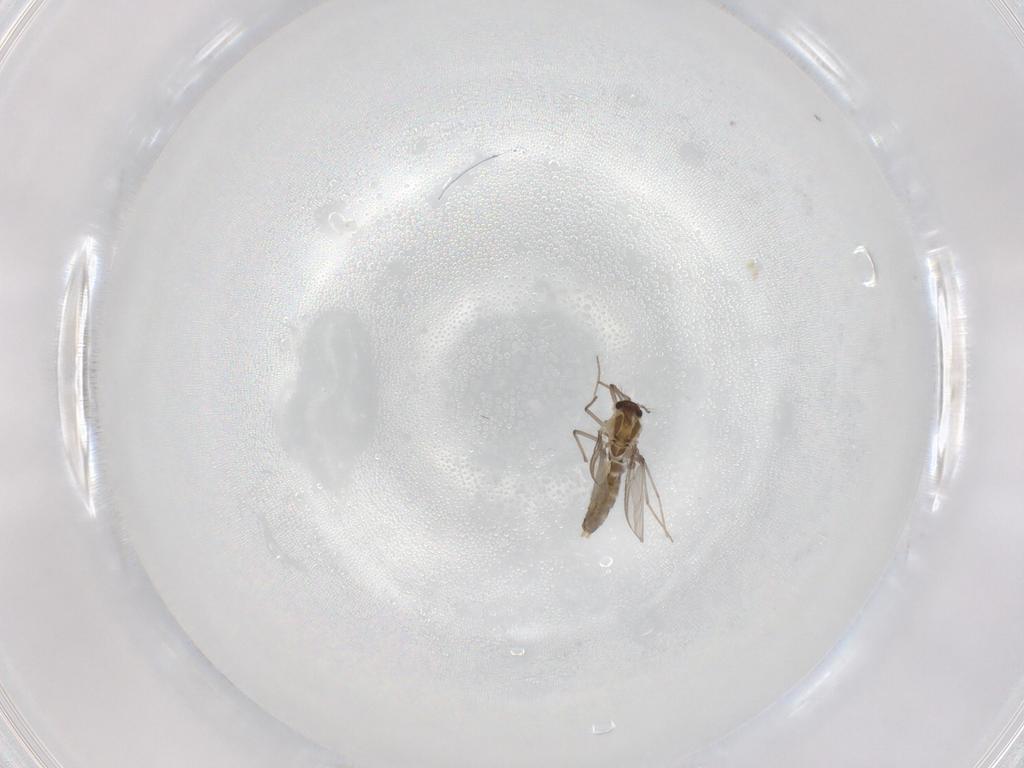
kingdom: Animalia
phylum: Arthropoda
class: Insecta
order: Diptera
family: Chironomidae
